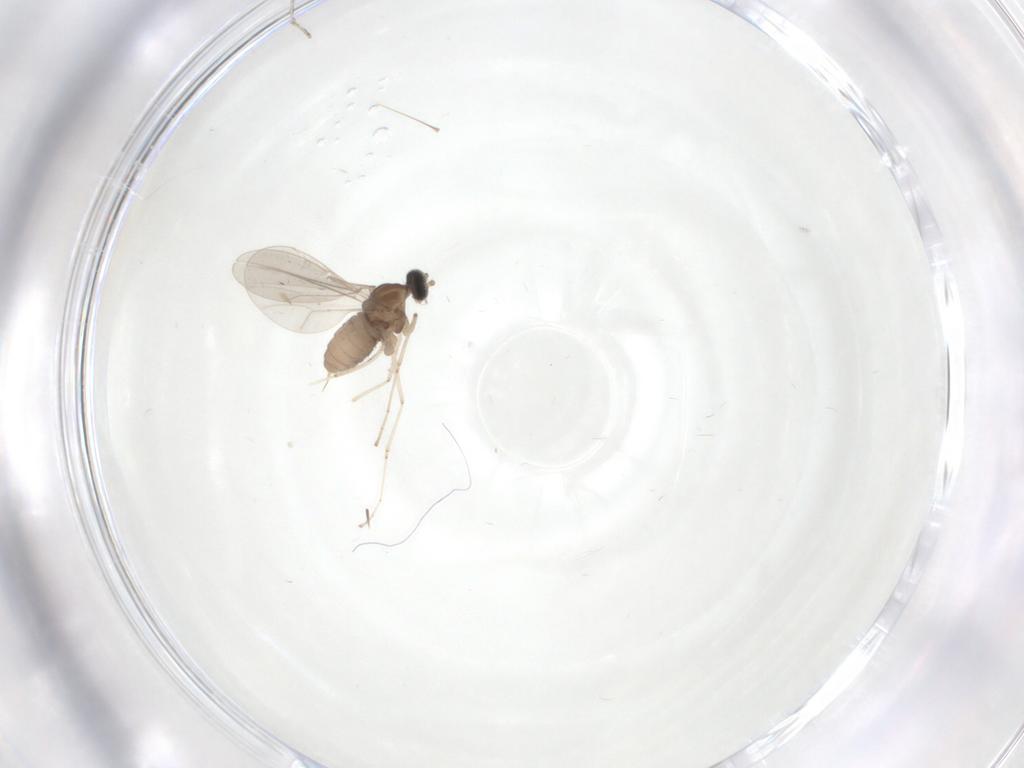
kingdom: Animalia
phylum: Arthropoda
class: Insecta
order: Diptera
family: Cecidomyiidae
